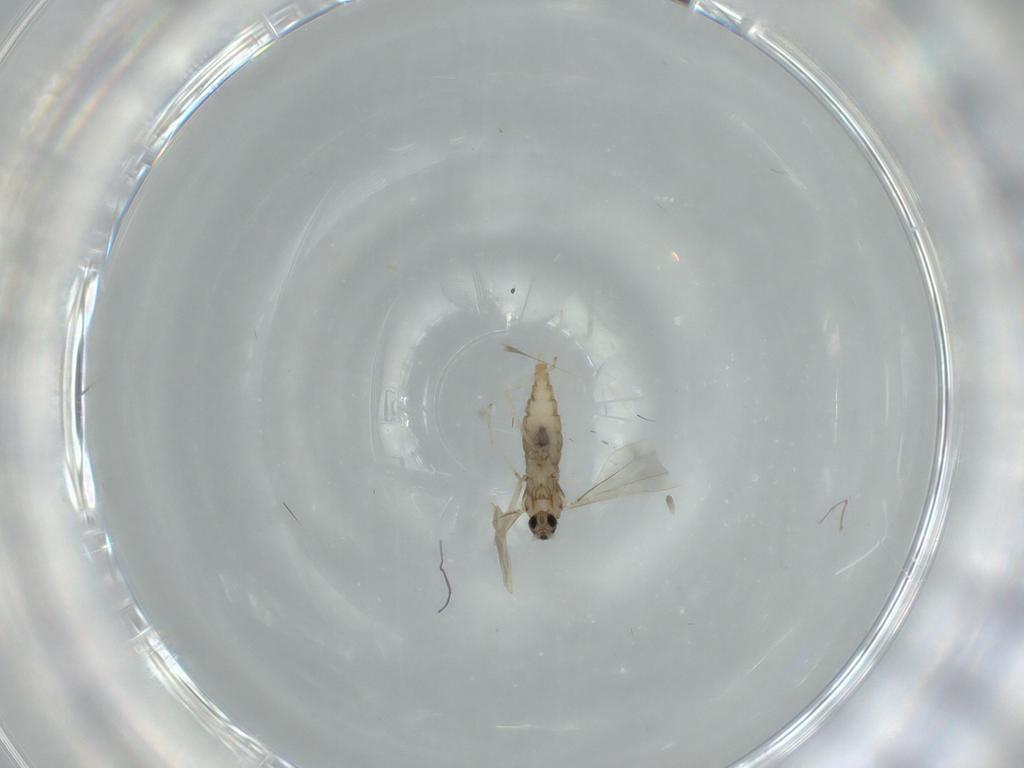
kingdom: Animalia
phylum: Arthropoda
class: Insecta
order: Diptera
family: Cecidomyiidae
